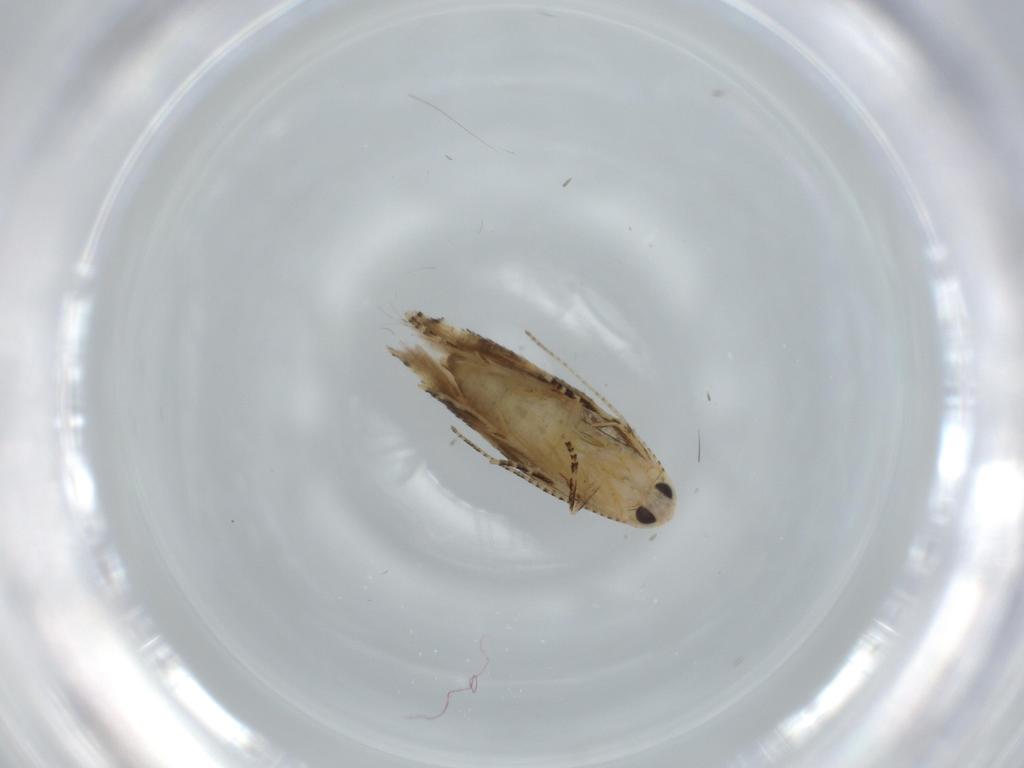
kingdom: Animalia
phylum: Arthropoda
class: Insecta
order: Lepidoptera
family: Bucculatricidae
